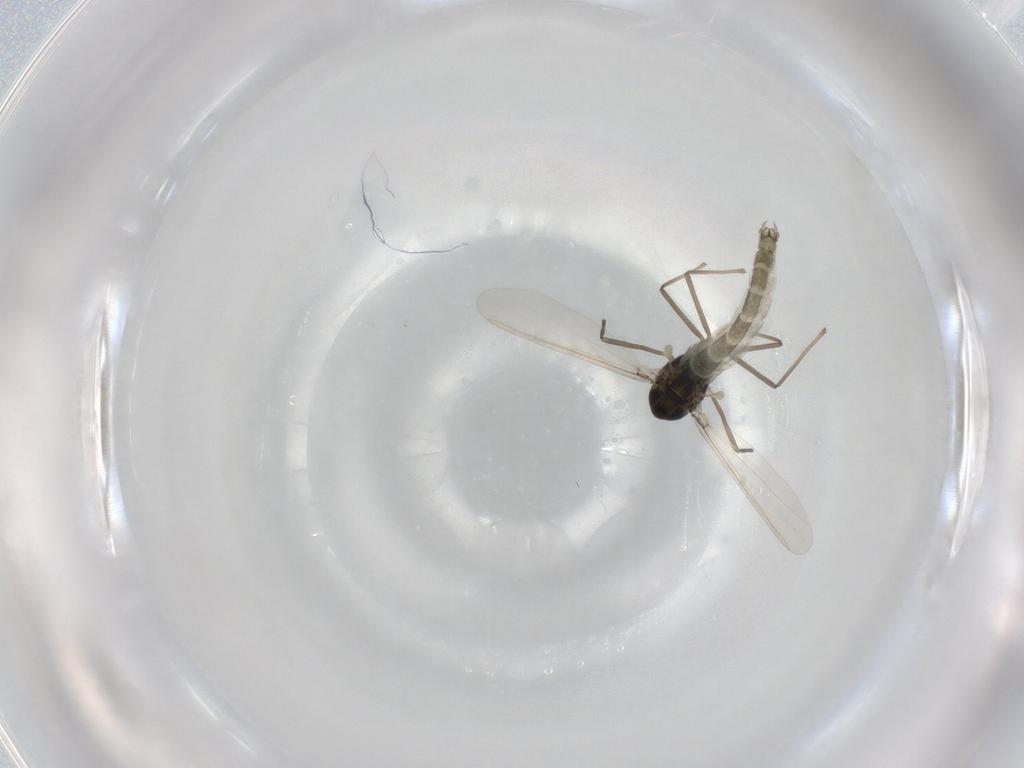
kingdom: Animalia
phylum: Arthropoda
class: Insecta
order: Diptera
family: Chironomidae
